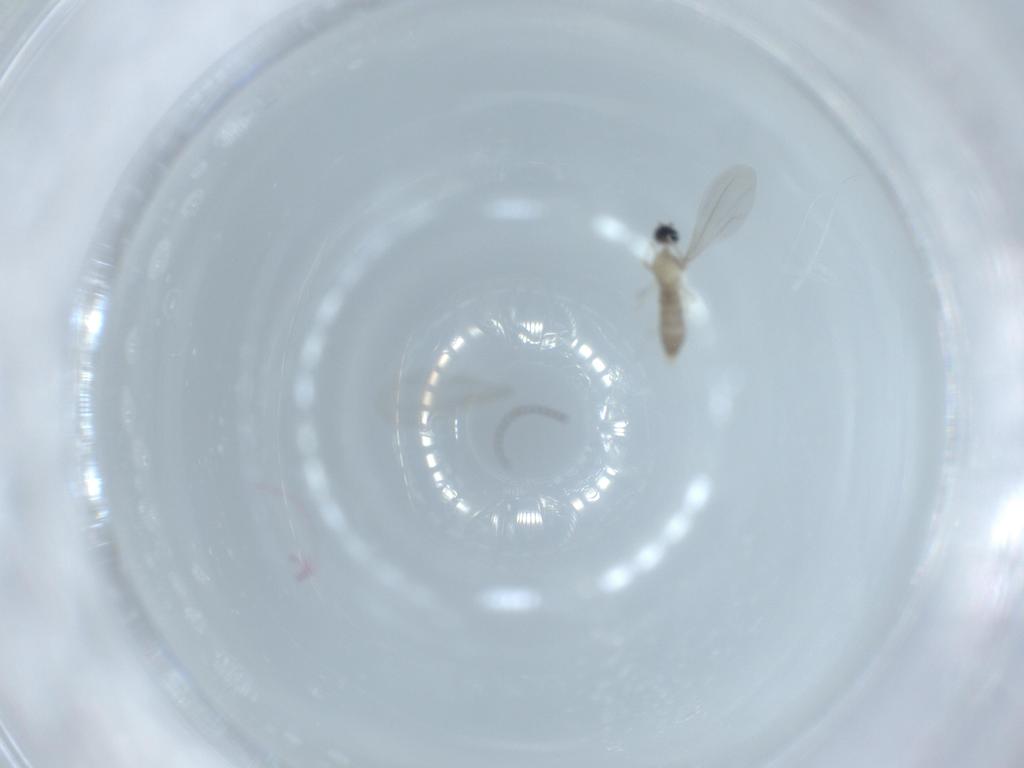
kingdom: Animalia
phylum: Arthropoda
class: Insecta
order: Diptera
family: Cecidomyiidae
